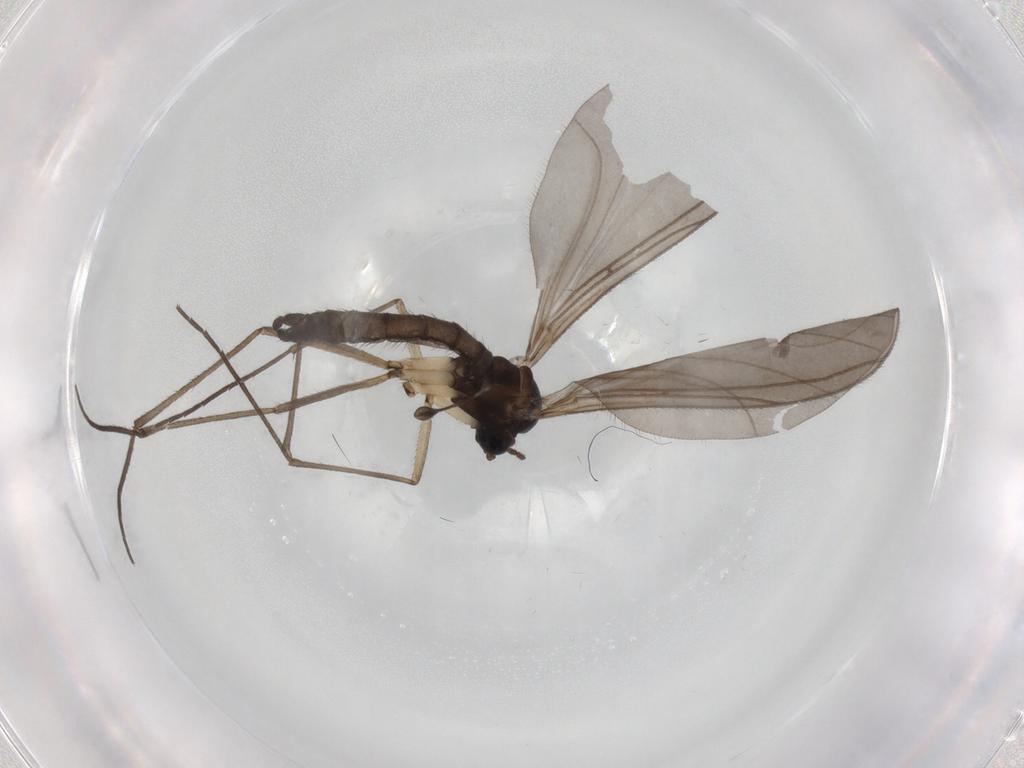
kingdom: Animalia
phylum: Arthropoda
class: Insecta
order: Diptera
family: Sciaridae
